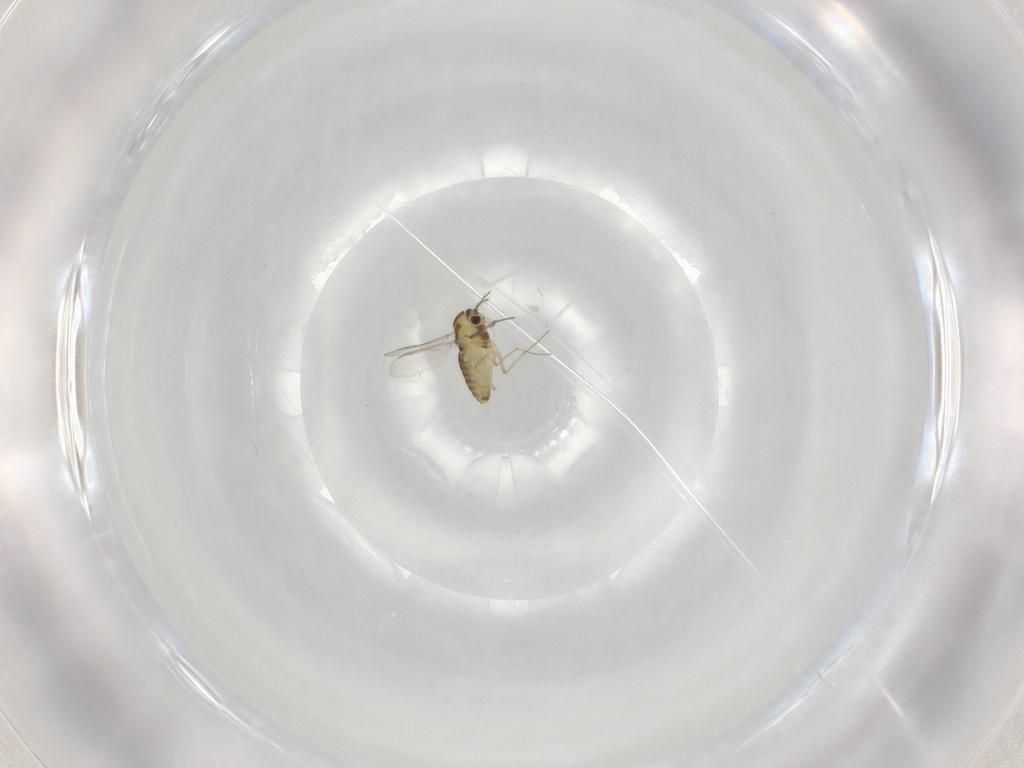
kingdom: Animalia
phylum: Arthropoda
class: Insecta
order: Diptera
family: Chironomidae
